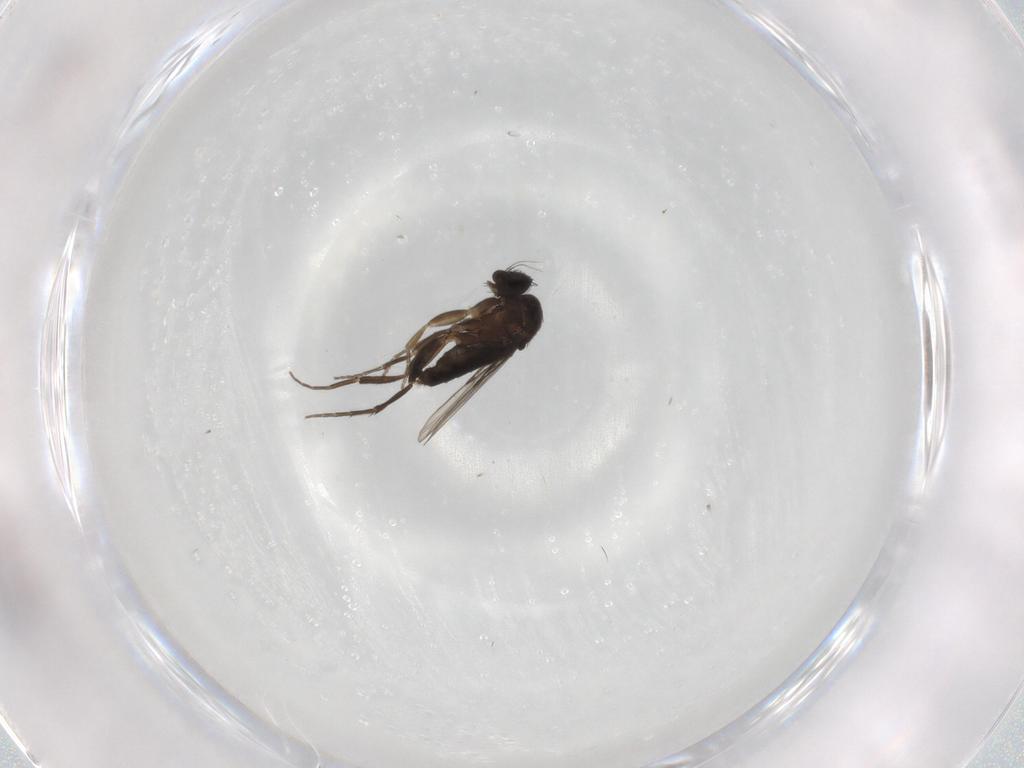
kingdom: Animalia
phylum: Arthropoda
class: Insecta
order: Diptera
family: Phoridae
